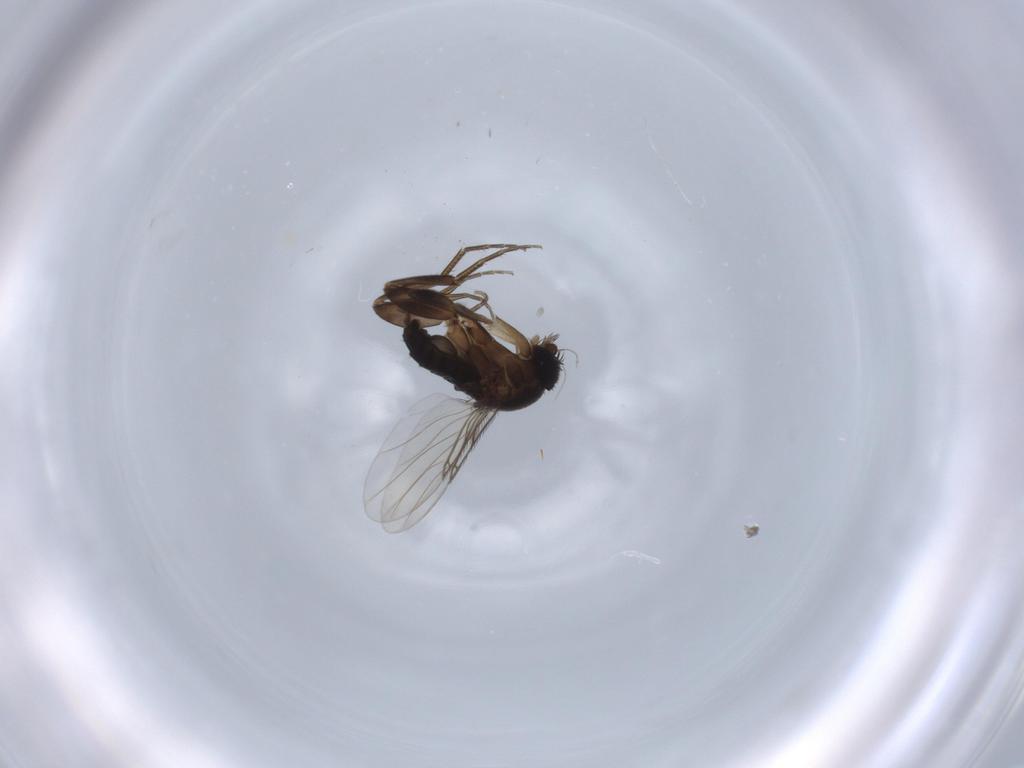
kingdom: Animalia
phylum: Arthropoda
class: Insecta
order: Diptera
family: Phoridae
